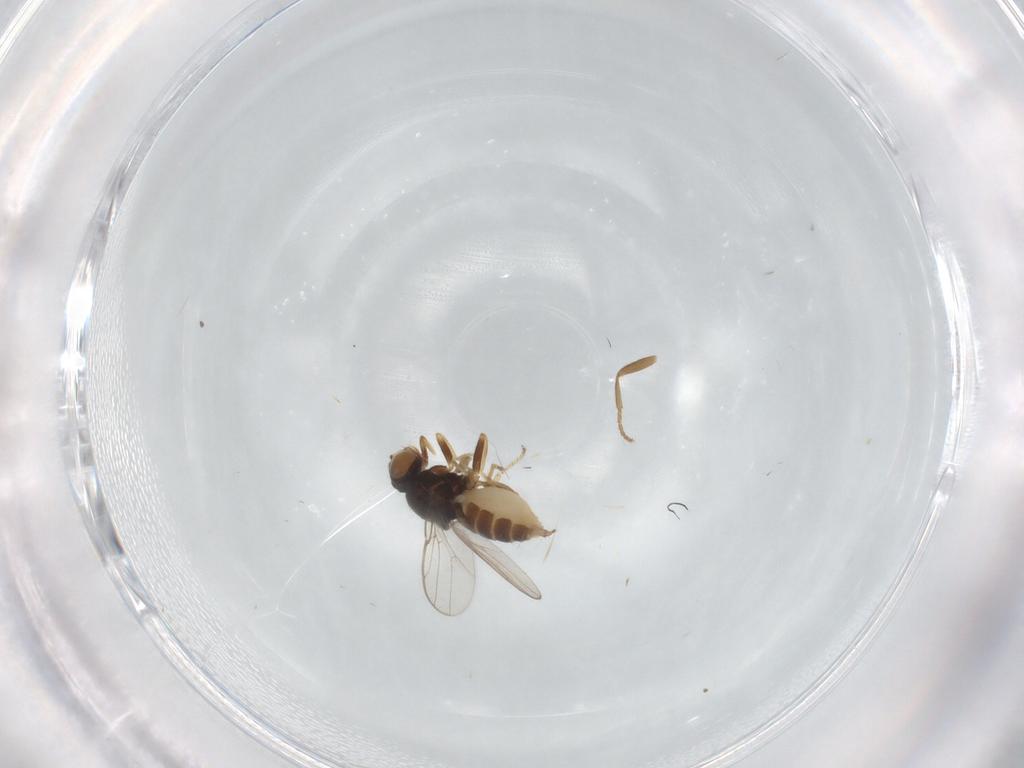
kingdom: Animalia
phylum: Arthropoda
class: Insecta
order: Diptera
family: Chloropidae
